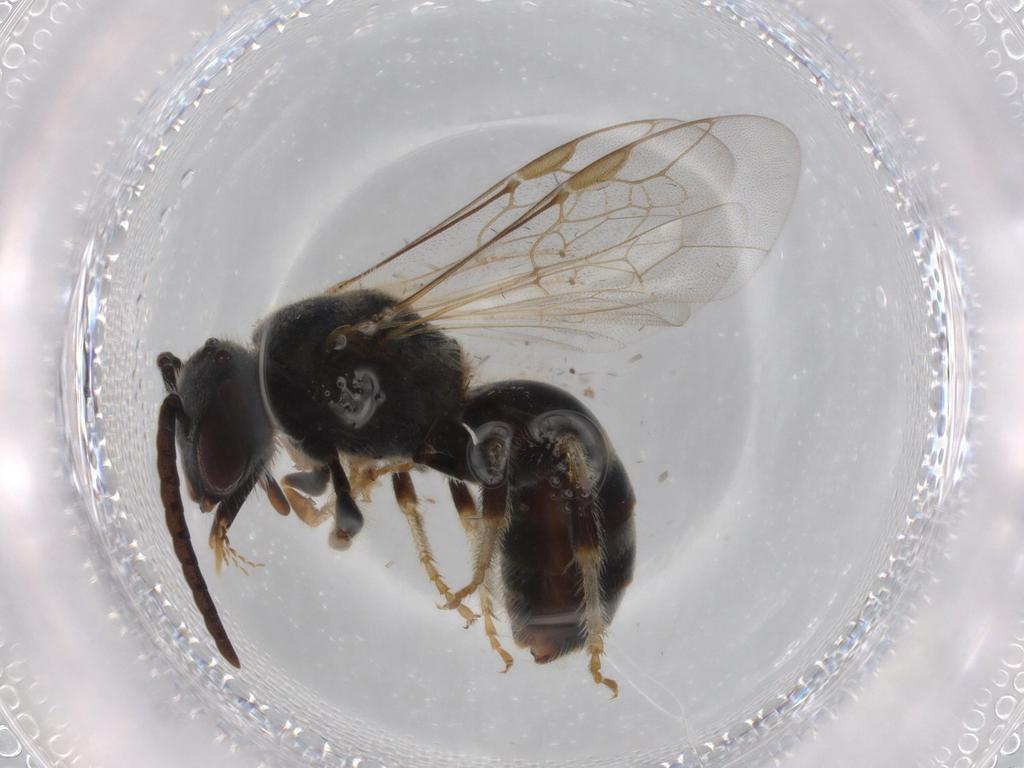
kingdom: Animalia
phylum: Arthropoda
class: Insecta
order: Hymenoptera
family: Halictidae
